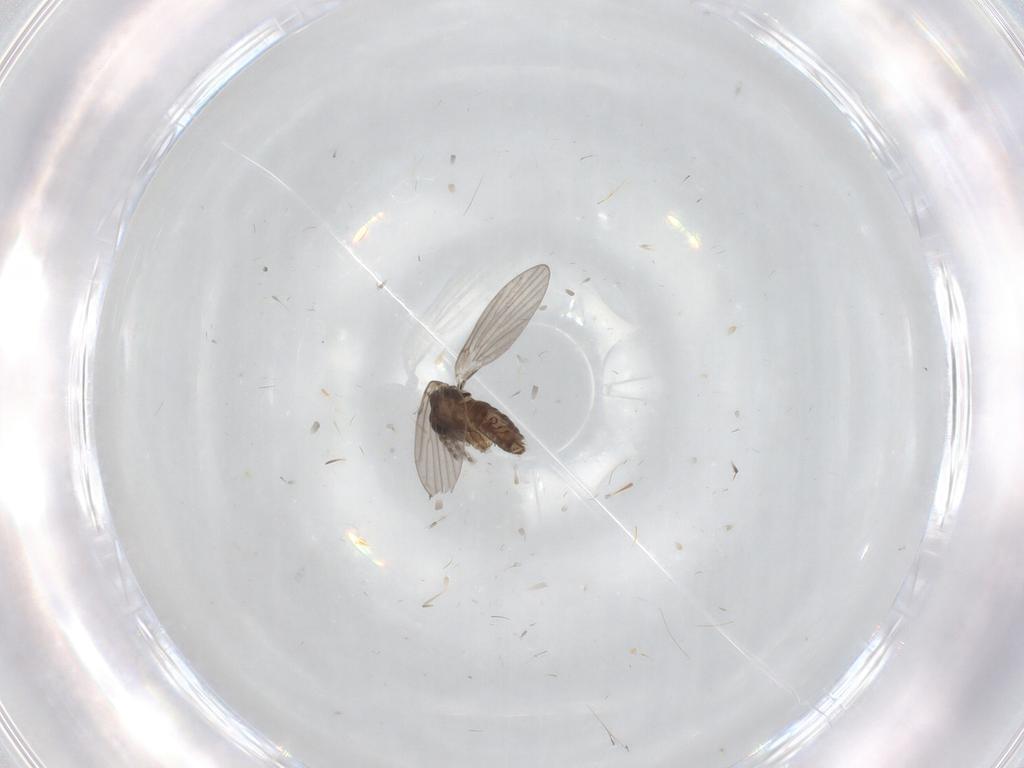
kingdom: Animalia
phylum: Arthropoda
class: Insecta
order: Diptera
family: Phoridae
